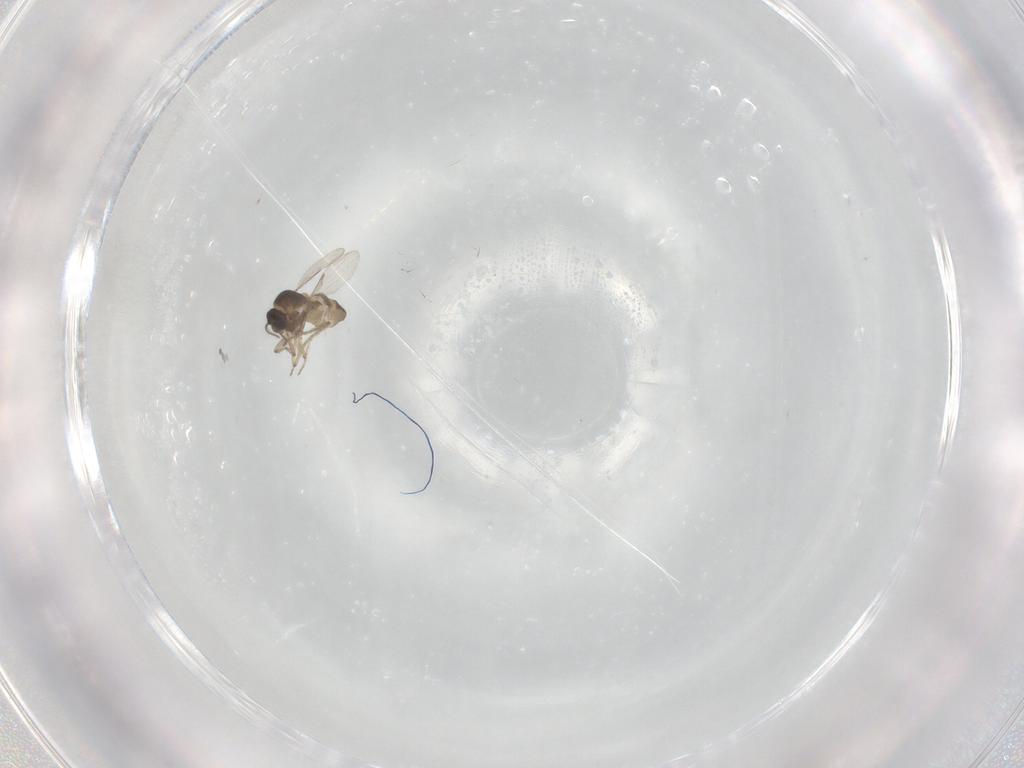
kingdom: Animalia
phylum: Arthropoda
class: Insecta
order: Diptera
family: Ceratopogonidae
